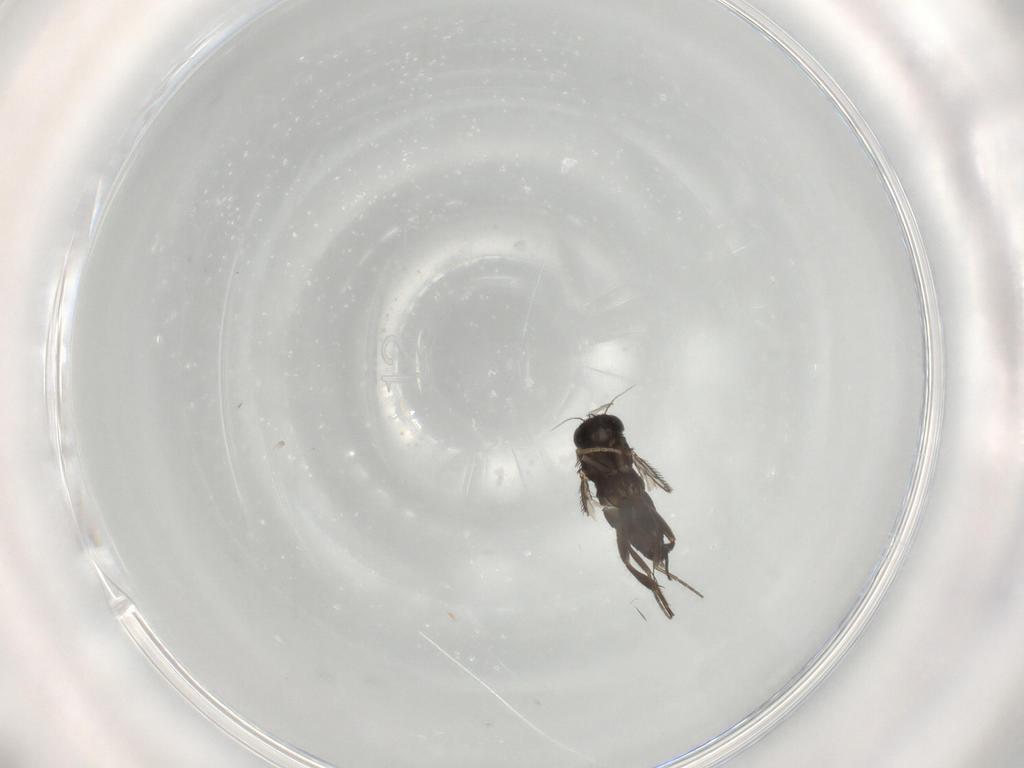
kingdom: Animalia
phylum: Arthropoda
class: Insecta
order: Diptera
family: Phoridae
